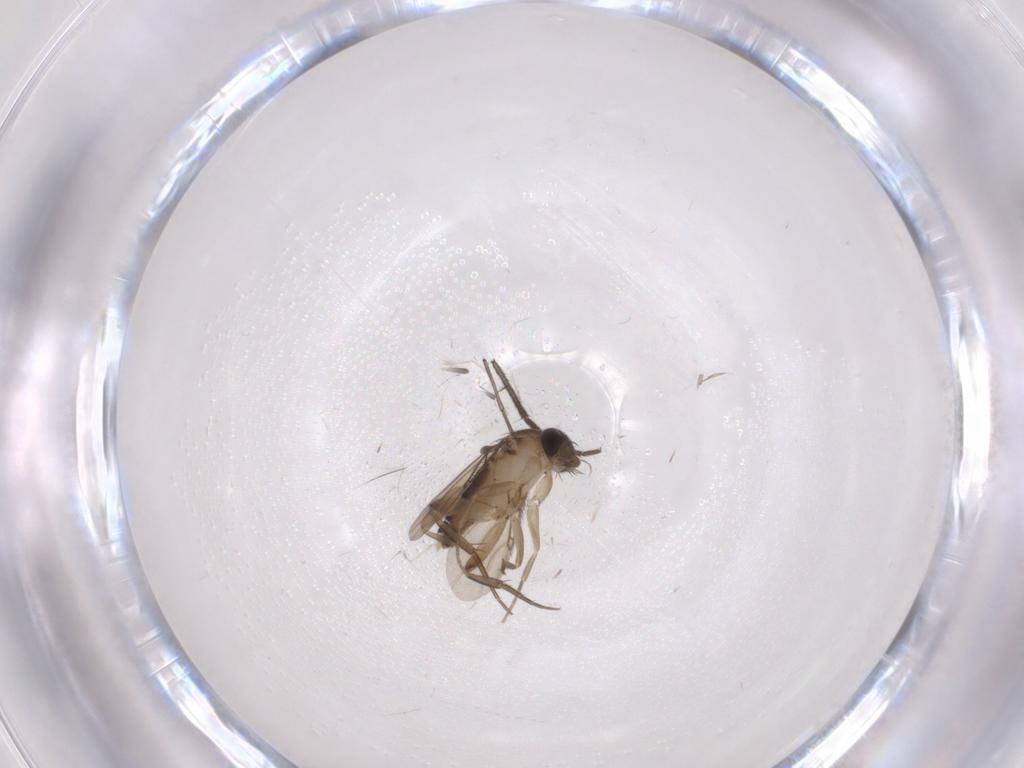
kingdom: Animalia
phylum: Arthropoda
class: Insecta
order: Diptera
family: Phoridae
